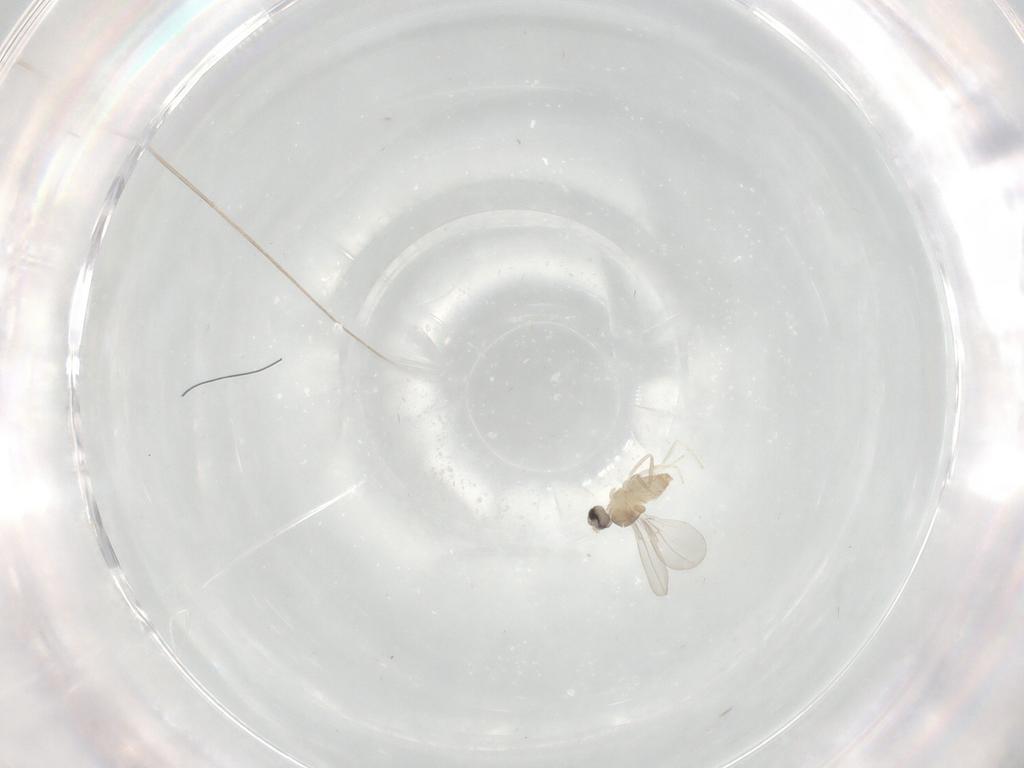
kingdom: Animalia
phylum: Arthropoda
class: Insecta
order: Diptera
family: Cecidomyiidae
